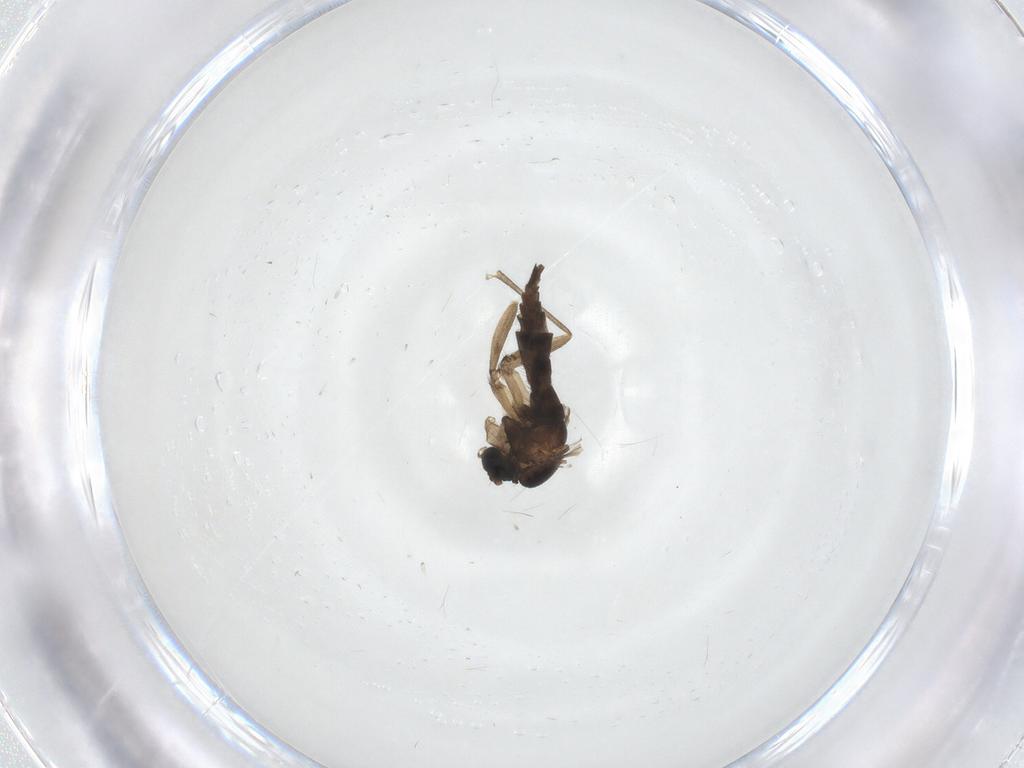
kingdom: Animalia
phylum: Arthropoda
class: Insecta
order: Diptera
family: Sciaridae
